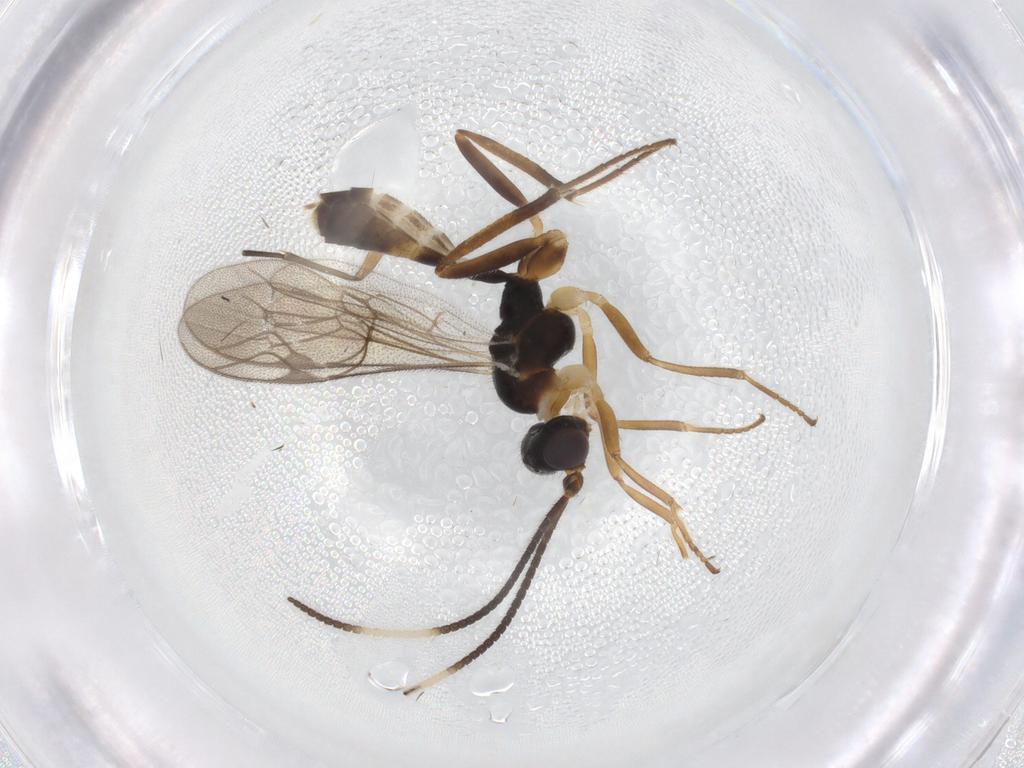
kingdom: Animalia
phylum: Arthropoda
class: Insecta
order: Hymenoptera
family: Ichneumonidae
